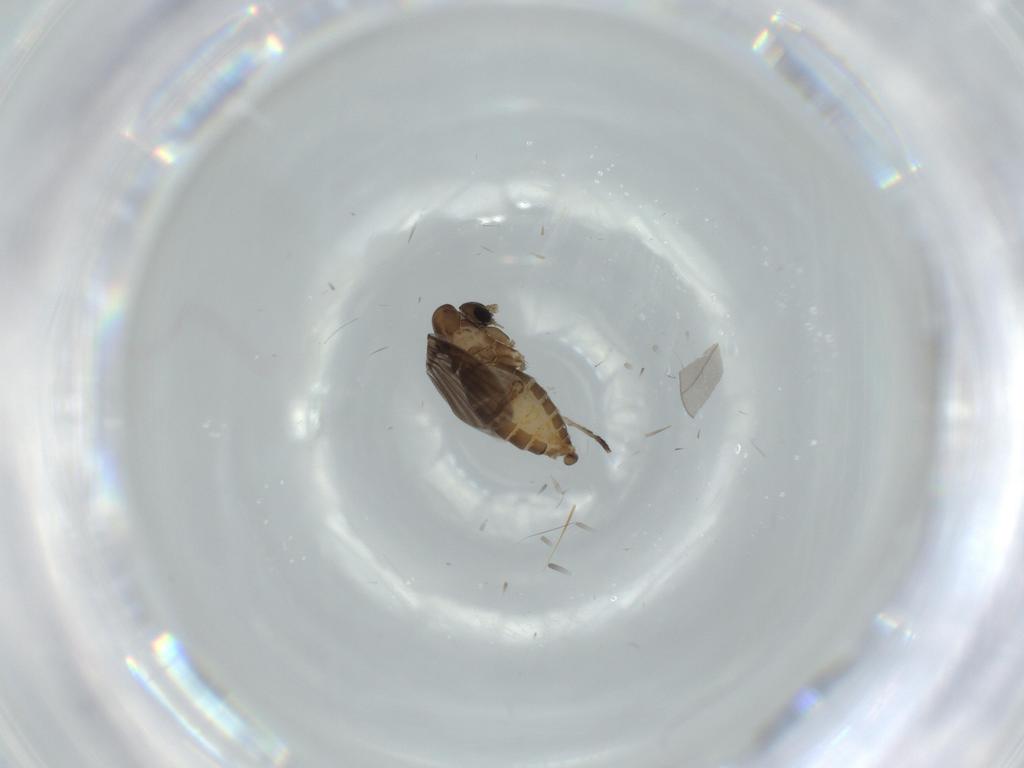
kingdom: Animalia
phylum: Arthropoda
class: Insecta
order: Diptera
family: Psychodidae
